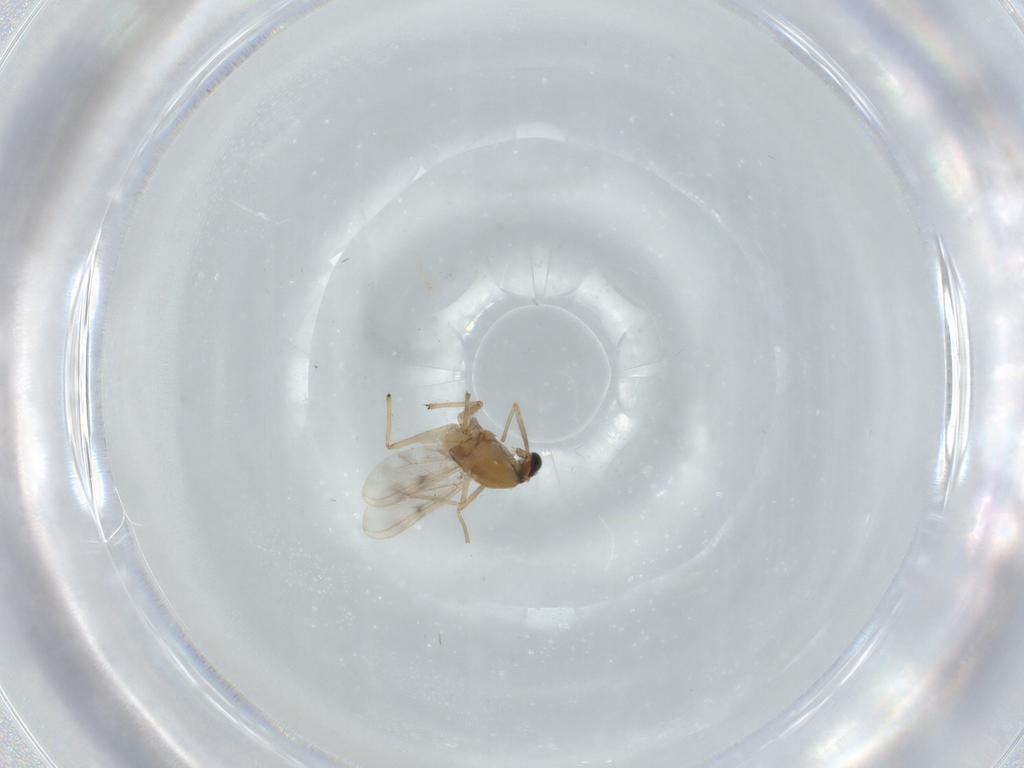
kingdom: Animalia
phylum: Arthropoda
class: Insecta
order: Diptera
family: Chironomidae
